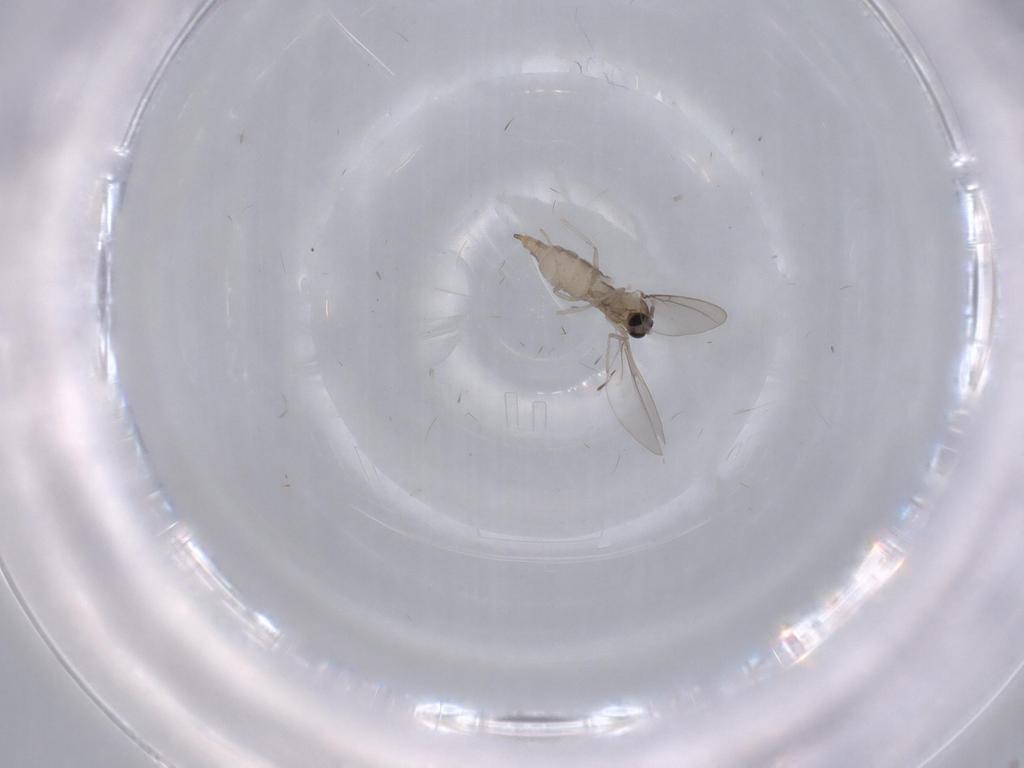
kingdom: Animalia
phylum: Arthropoda
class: Insecta
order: Diptera
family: Cecidomyiidae
